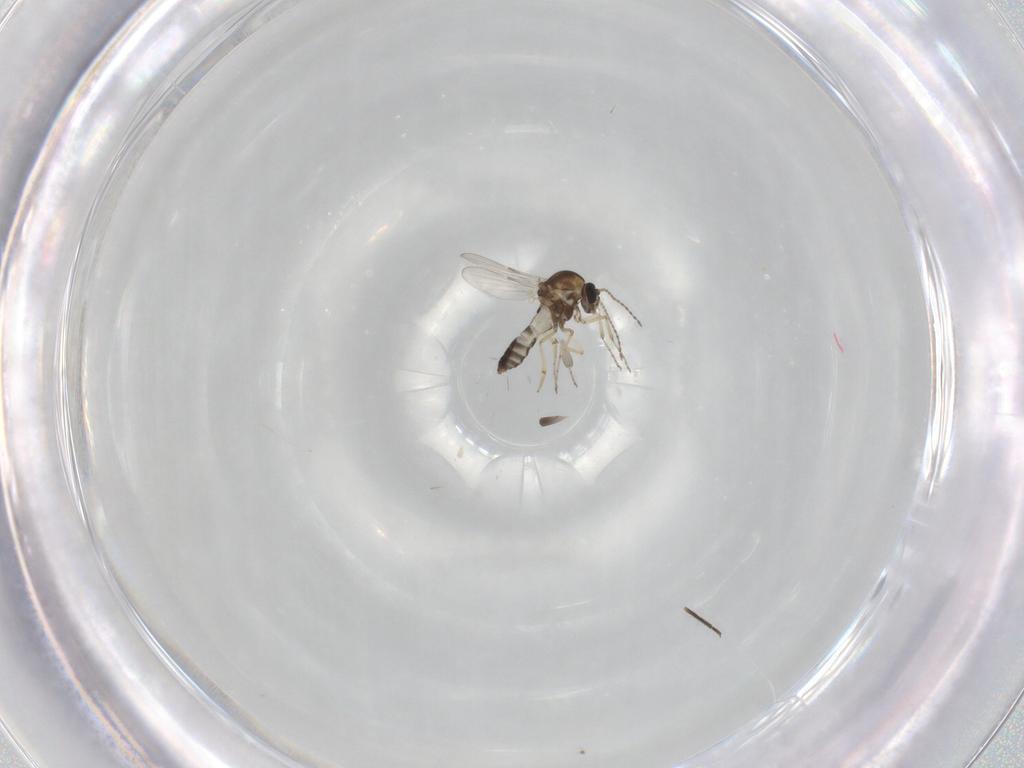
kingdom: Animalia
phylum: Arthropoda
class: Insecta
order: Diptera
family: Ceratopogonidae
